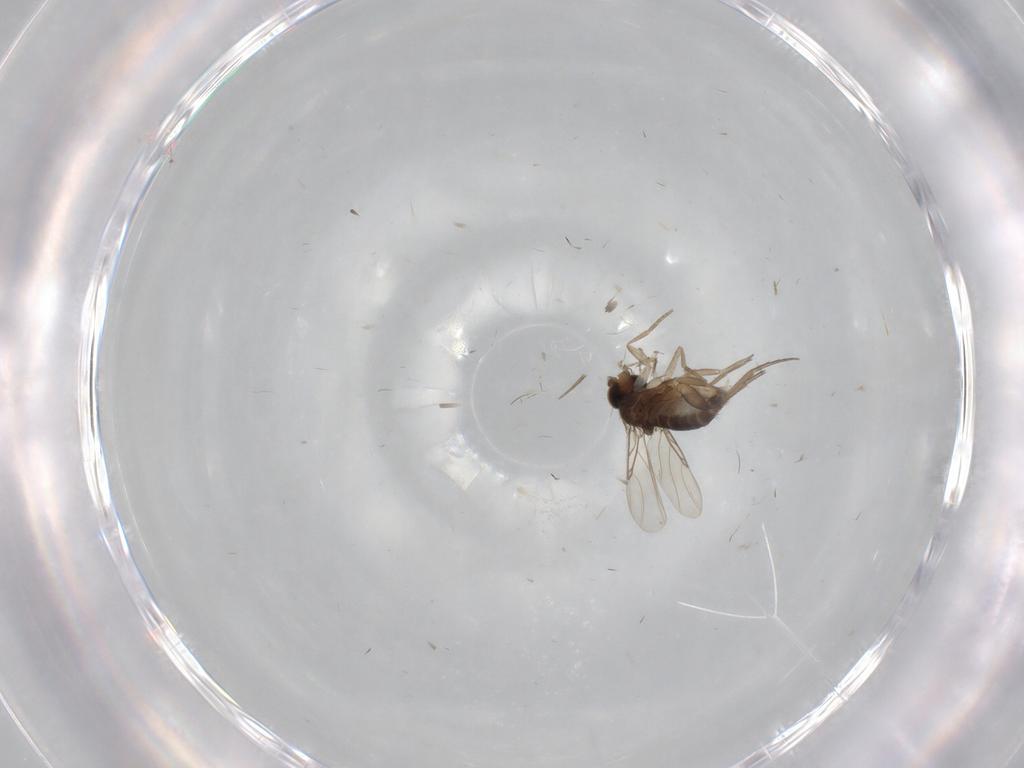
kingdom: Animalia
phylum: Arthropoda
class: Insecta
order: Diptera
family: Phoridae
